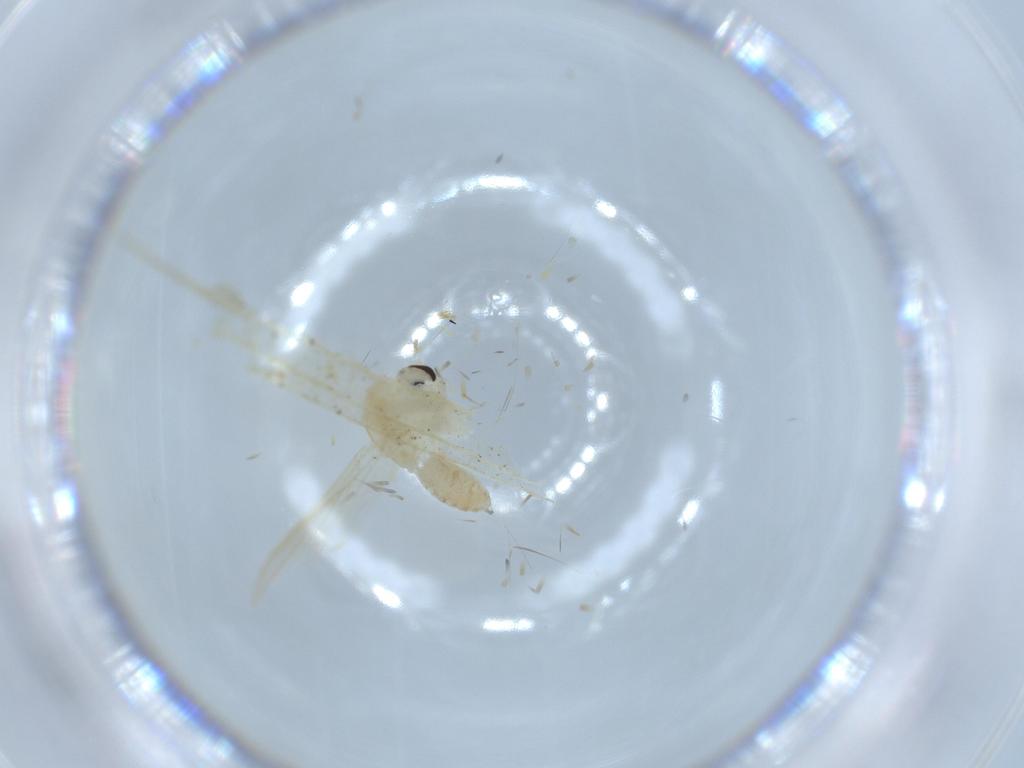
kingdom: Animalia
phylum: Arthropoda
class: Insecta
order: Diptera
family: Chironomidae
